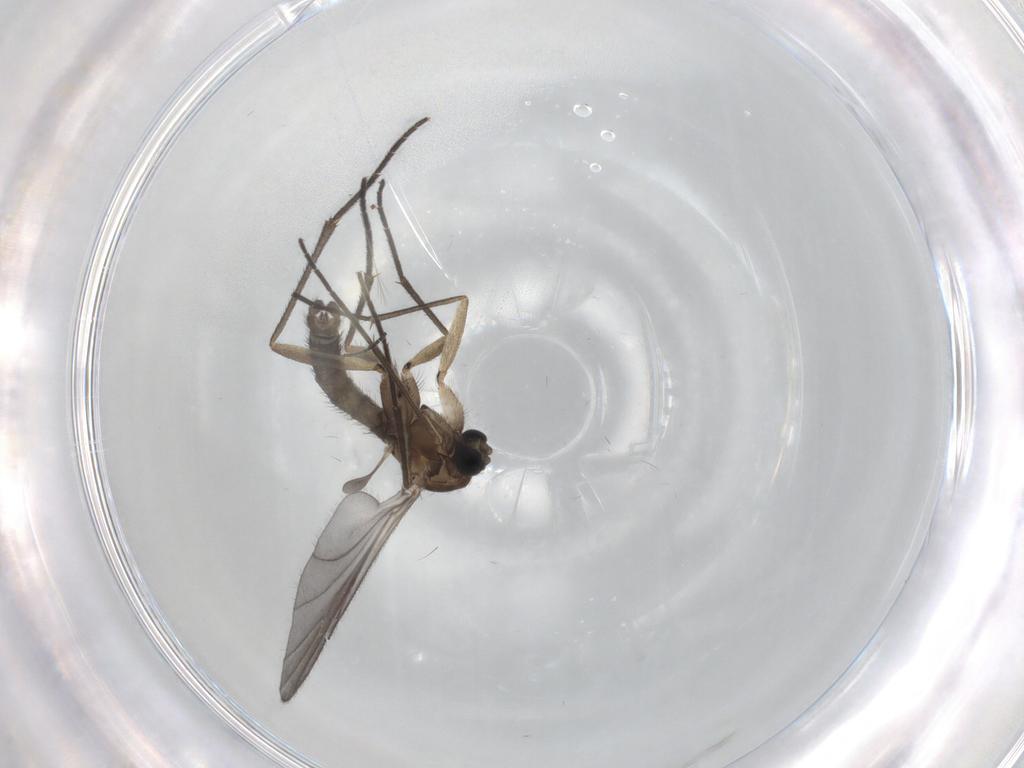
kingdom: Animalia
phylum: Arthropoda
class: Insecta
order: Diptera
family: Sciaridae
